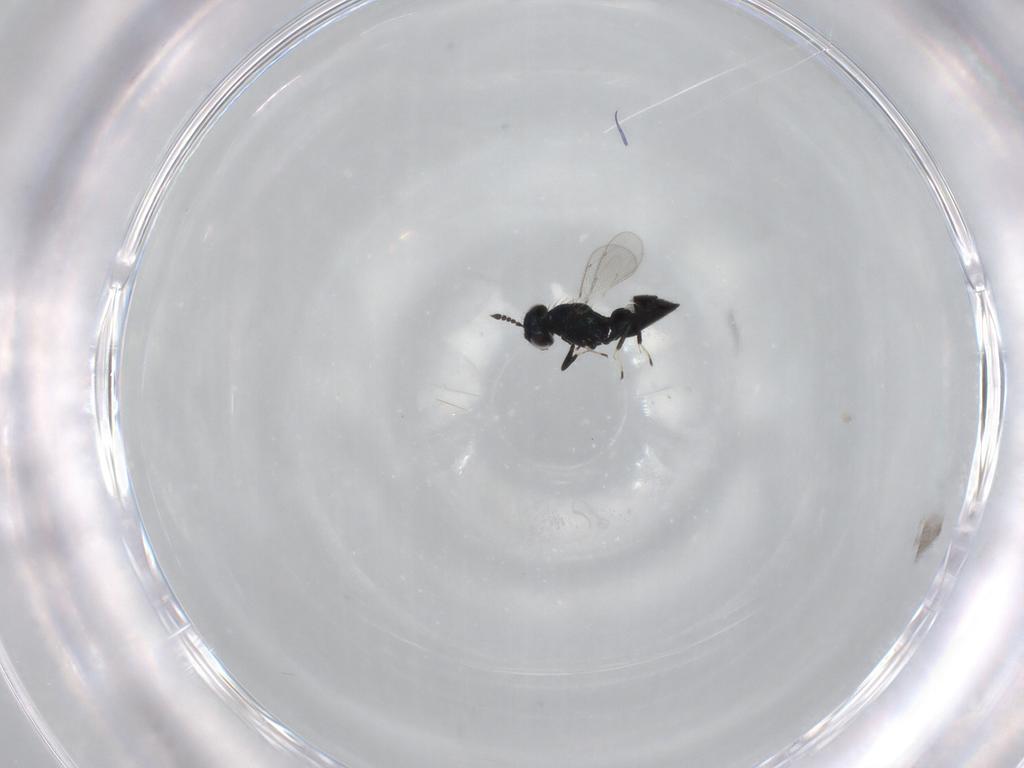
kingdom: Animalia
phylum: Arthropoda
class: Insecta
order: Hymenoptera
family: Eulophidae
